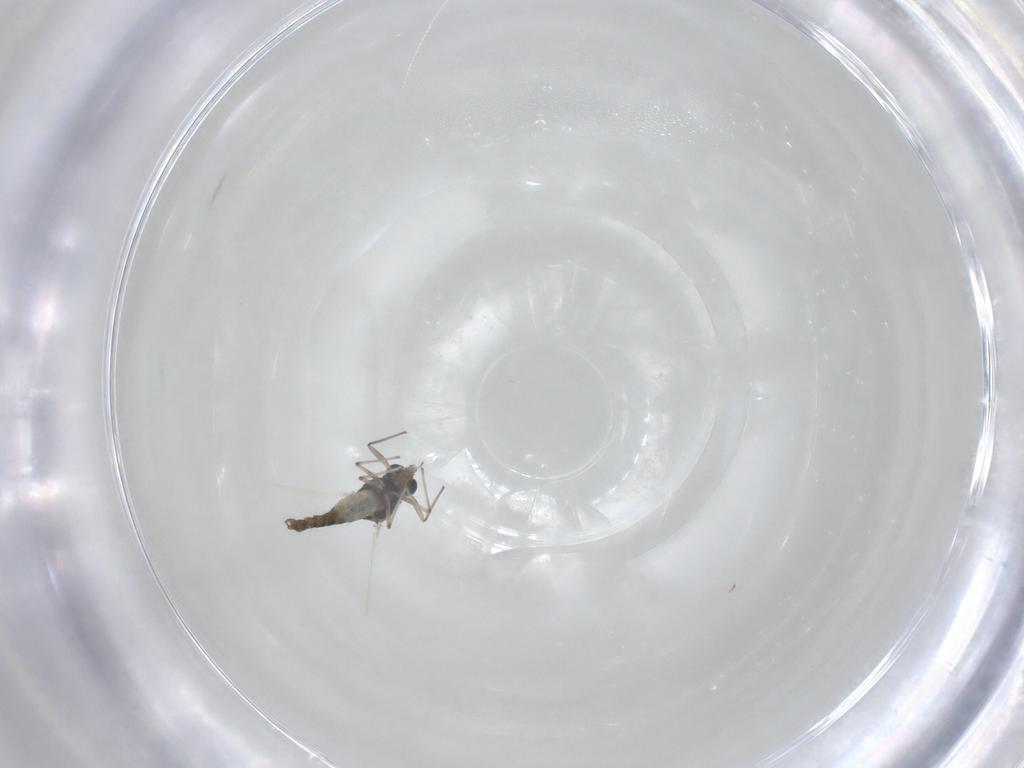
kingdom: Animalia
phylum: Arthropoda
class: Insecta
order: Diptera
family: Chironomidae
